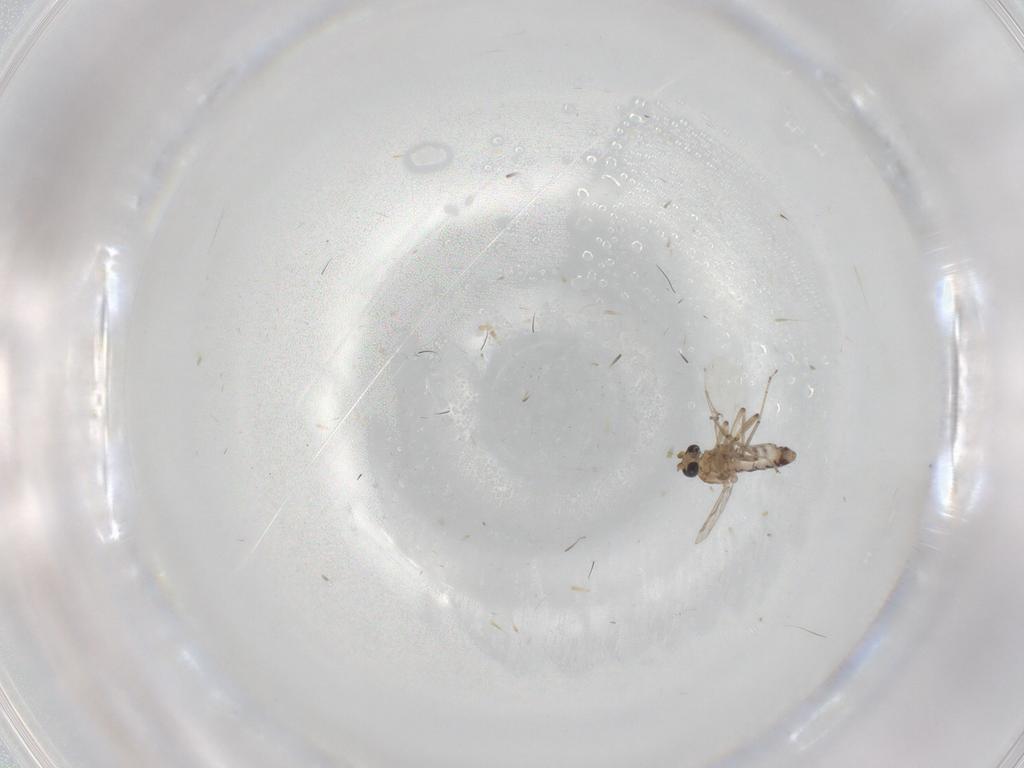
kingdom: Animalia
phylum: Arthropoda
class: Insecta
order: Diptera
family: Ceratopogonidae
